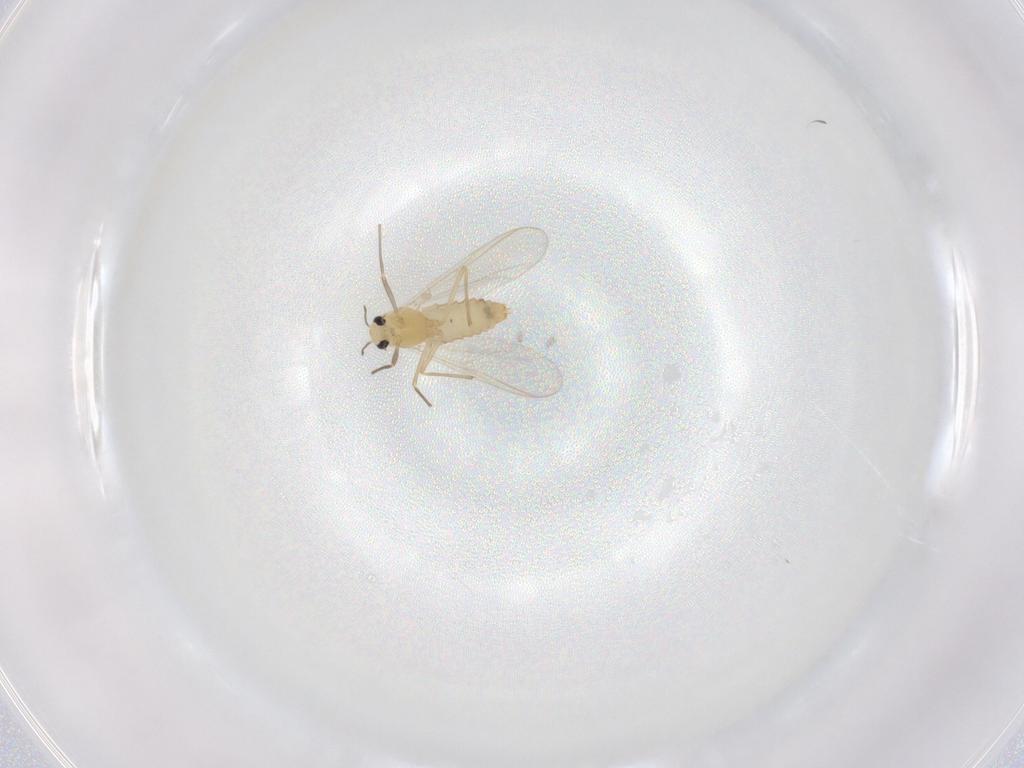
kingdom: Animalia
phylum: Arthropoda
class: Insecta
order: Diptera
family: Chironomidae
